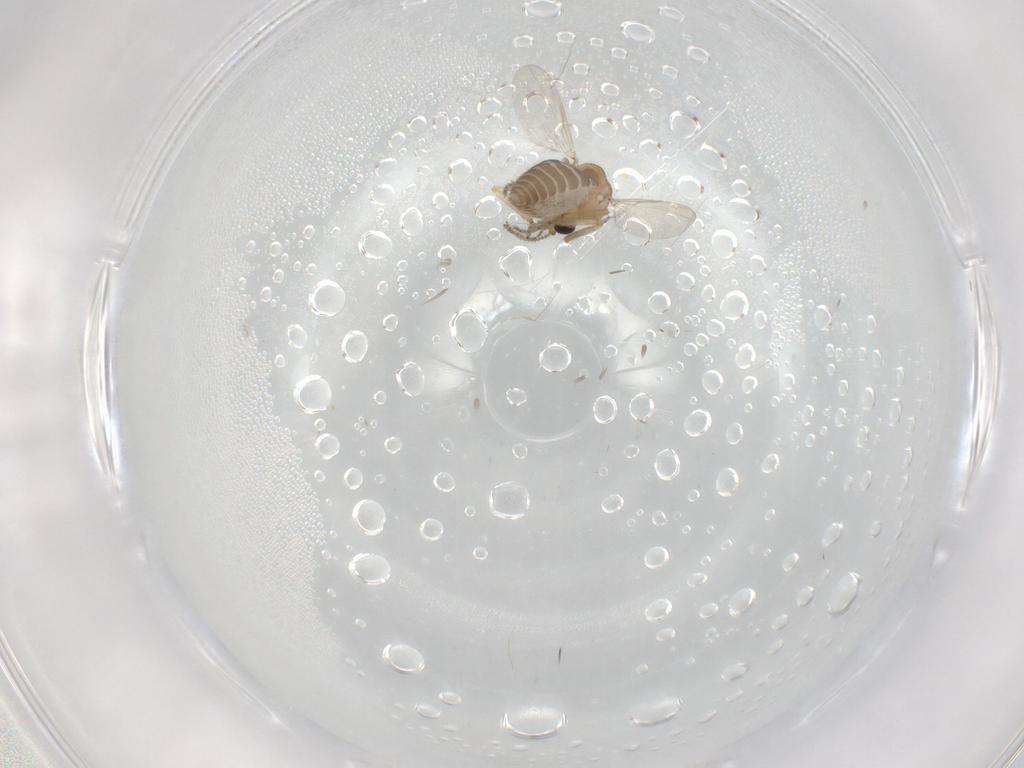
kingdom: Animalia
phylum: Arthropoda
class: Insecta
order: Diptera
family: Ceratopogonidae
